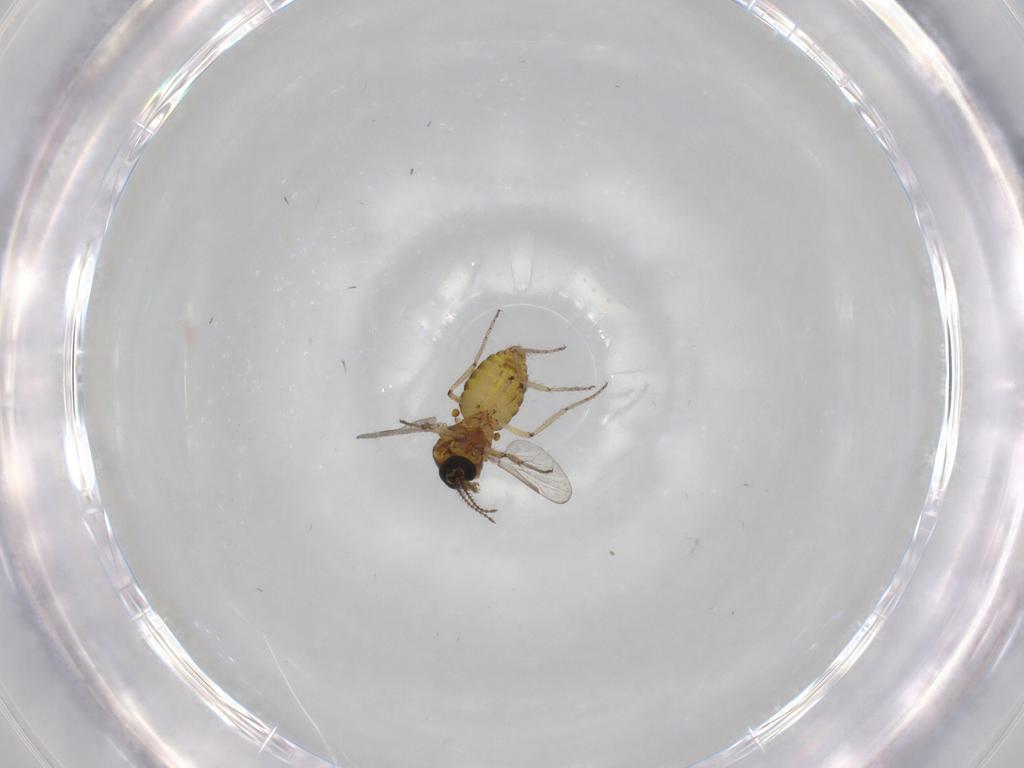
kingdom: Animalia
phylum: Arthropoda
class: Insecta
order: Diptera
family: Ceratopogonidae
